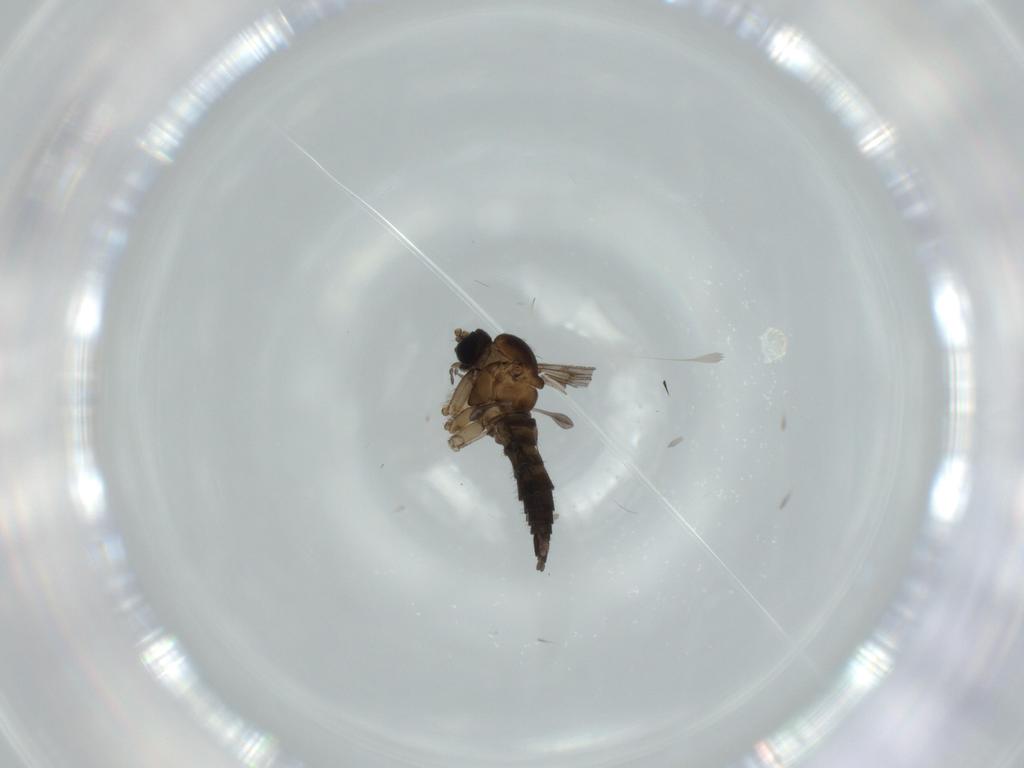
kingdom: Animalia
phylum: Arthropoda
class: Insecta
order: Diptera
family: Sciaridae
